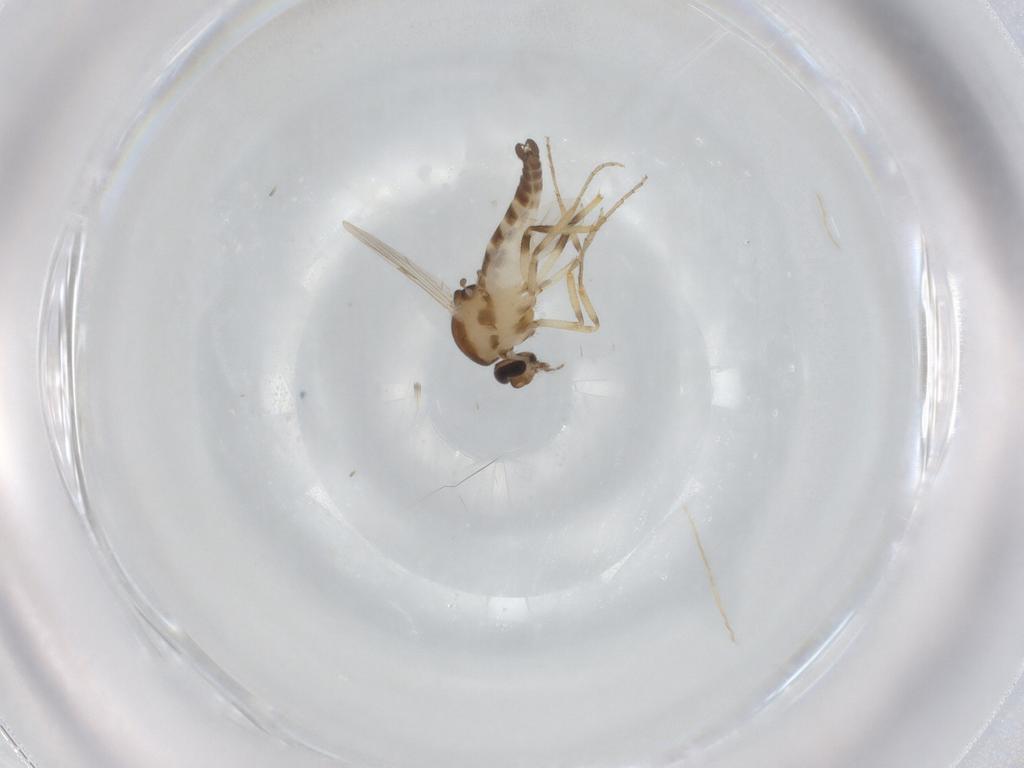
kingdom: Animalia
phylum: Arthropoda
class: Insecta
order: Diptera
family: Ceratopogonidae
